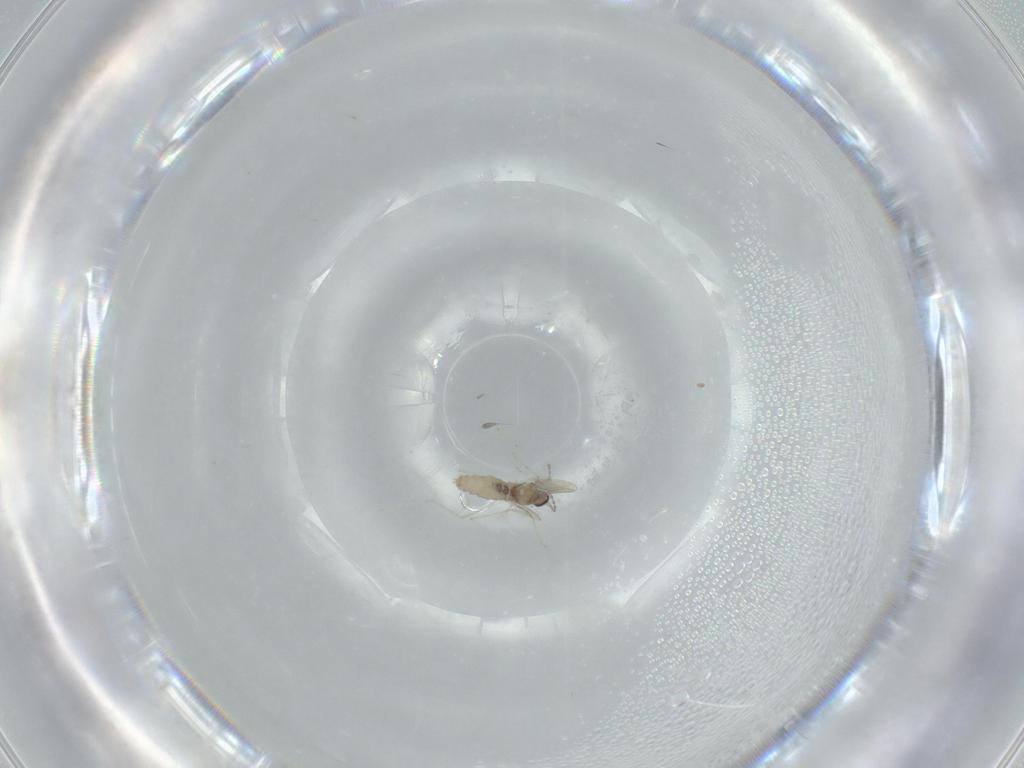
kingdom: Animalia
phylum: Arthropoda
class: Insecta
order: Diptera
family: Cecidomyiidae
